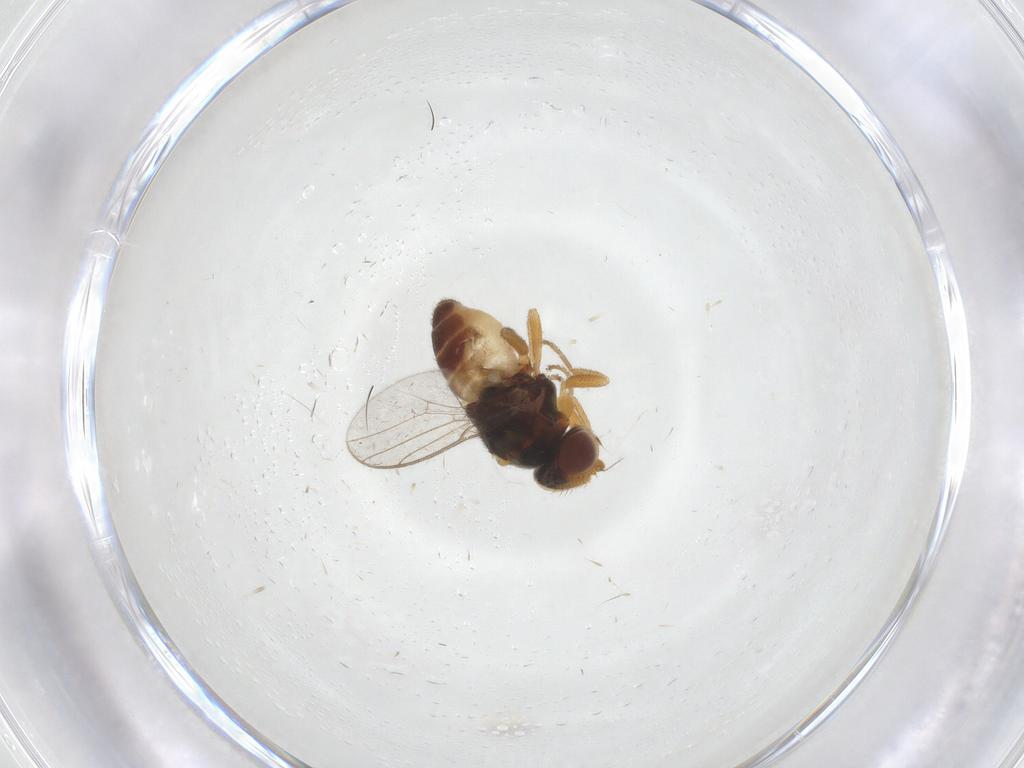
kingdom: Animalia
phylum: Arthropoda
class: Insecta
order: Diptera
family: Chloropidae
